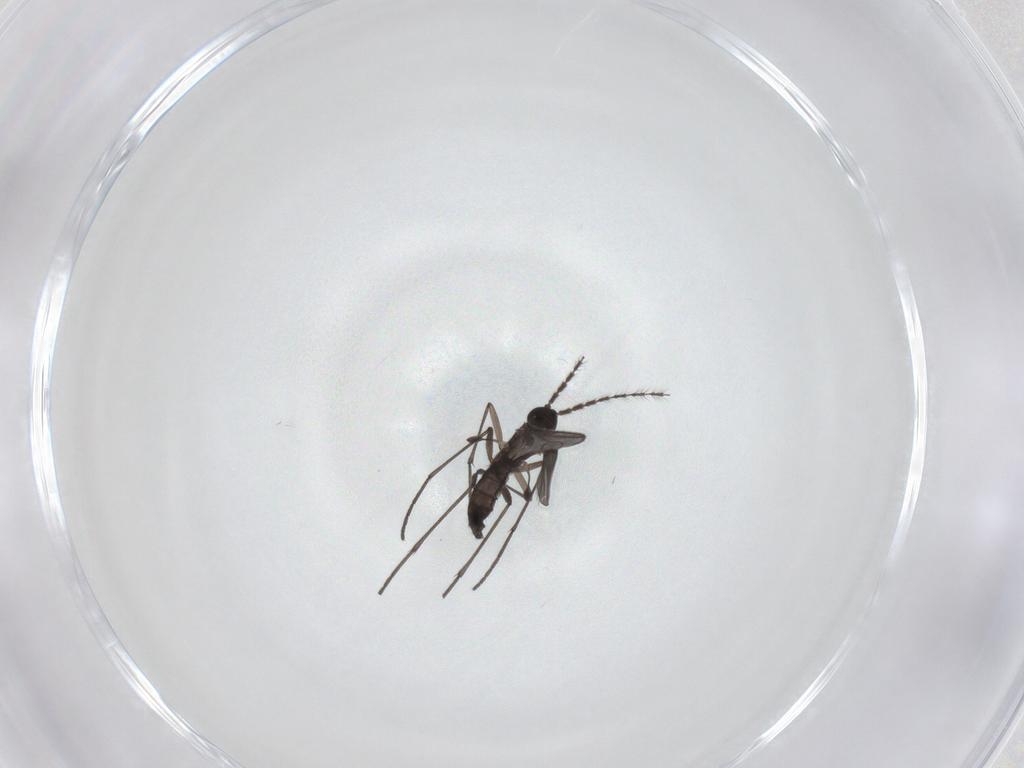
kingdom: Animalia
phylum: Arthropoda
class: Insecta
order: Diptera
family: Sciaridae
